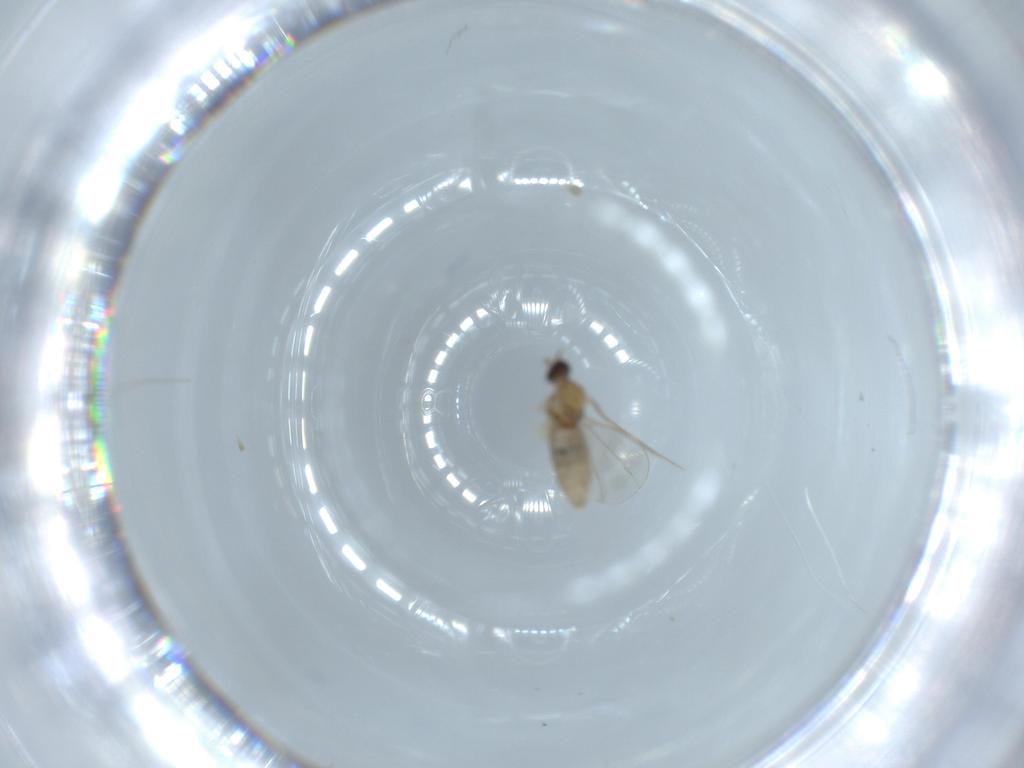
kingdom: Animalia
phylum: Arthropoda
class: Insecta
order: Diptera
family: Cecidomyiidae
